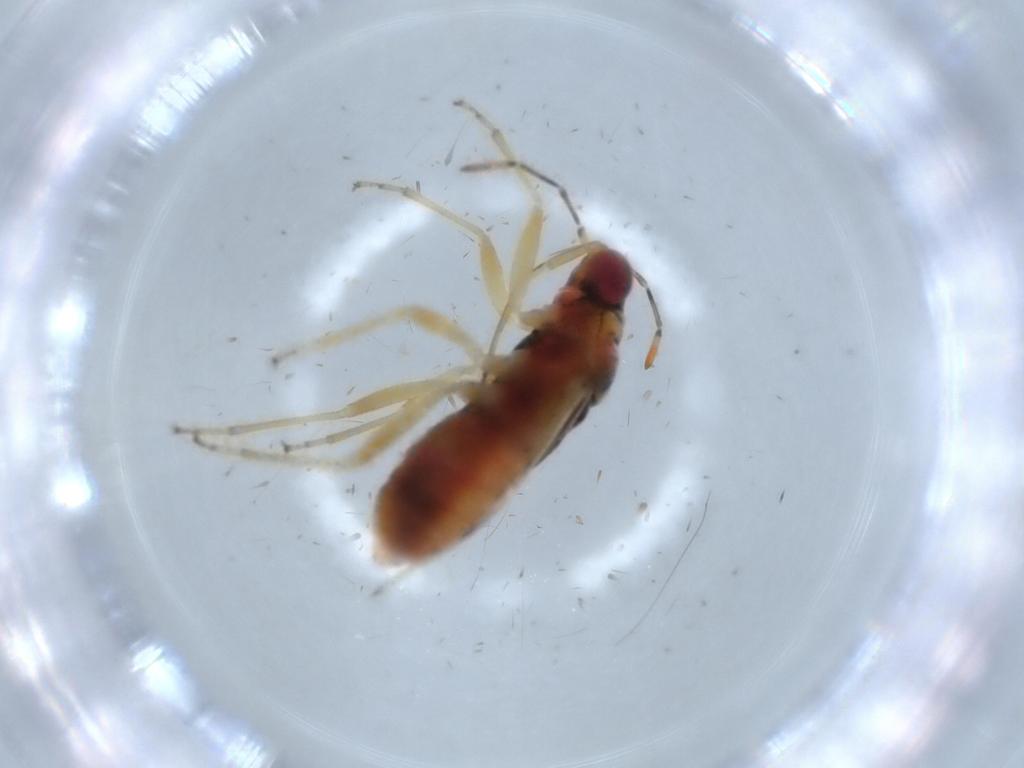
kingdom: Animalia
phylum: Arthropoda
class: Insecta
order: Hemiptera
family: Geocoridae
